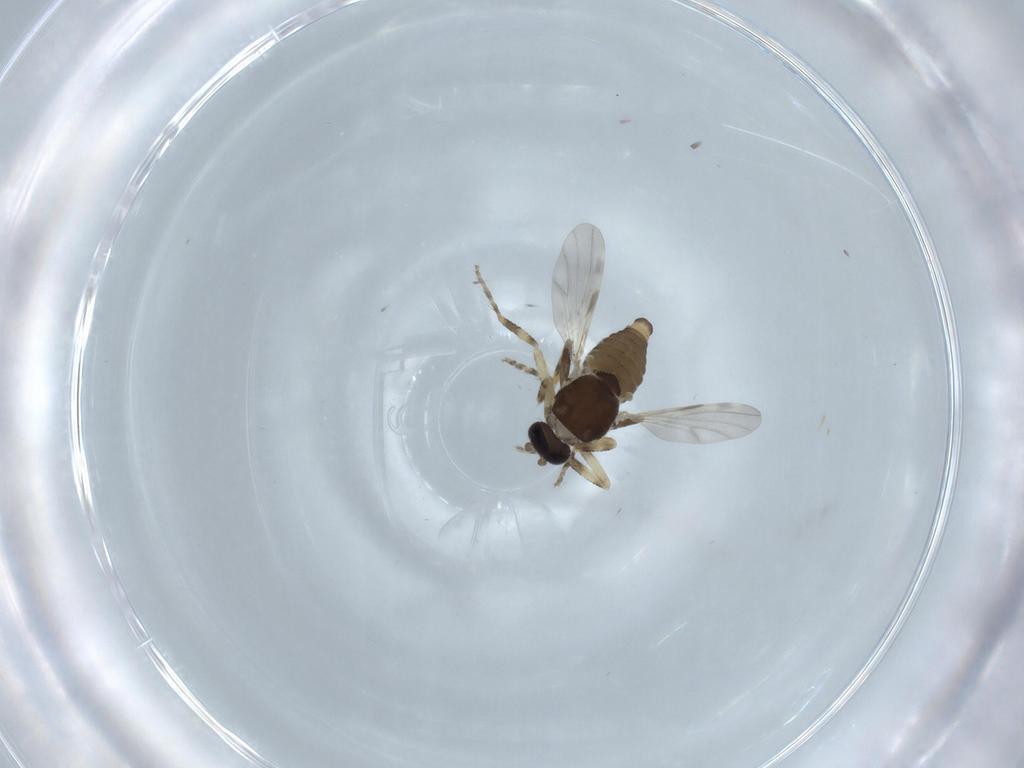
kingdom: Animalia
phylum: Arthropoda
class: Insecta
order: Diptera
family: Ceratopogonidae
